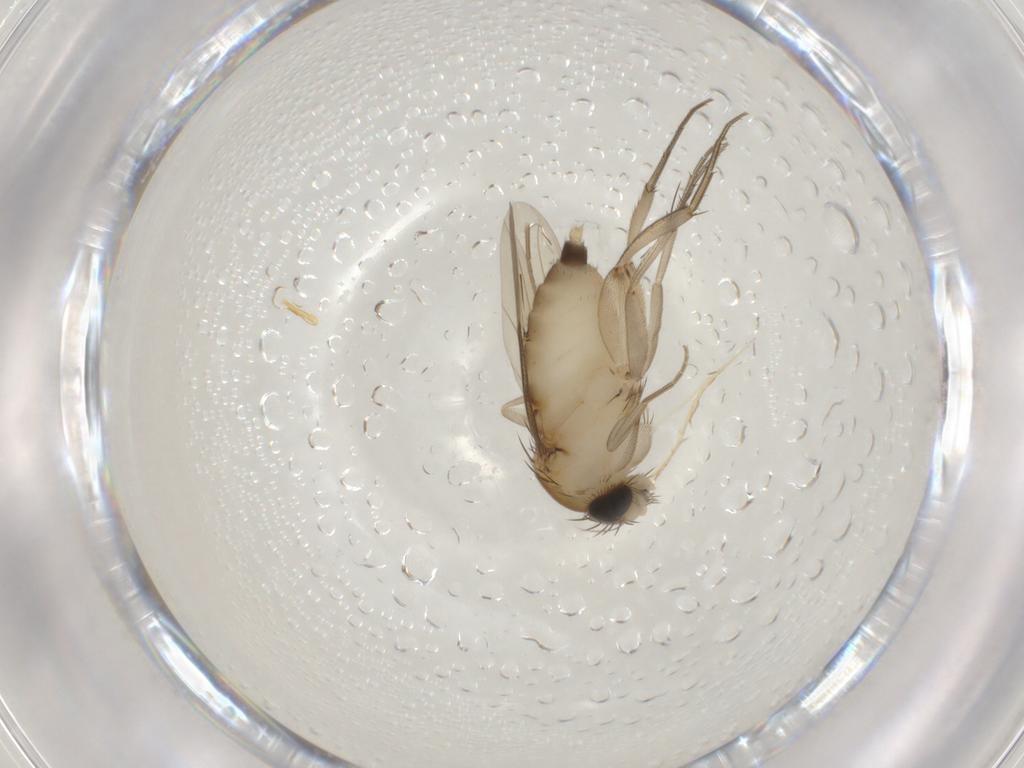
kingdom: Animalia
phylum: Arthropoda
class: Insecta
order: Diptera
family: Phoridae
